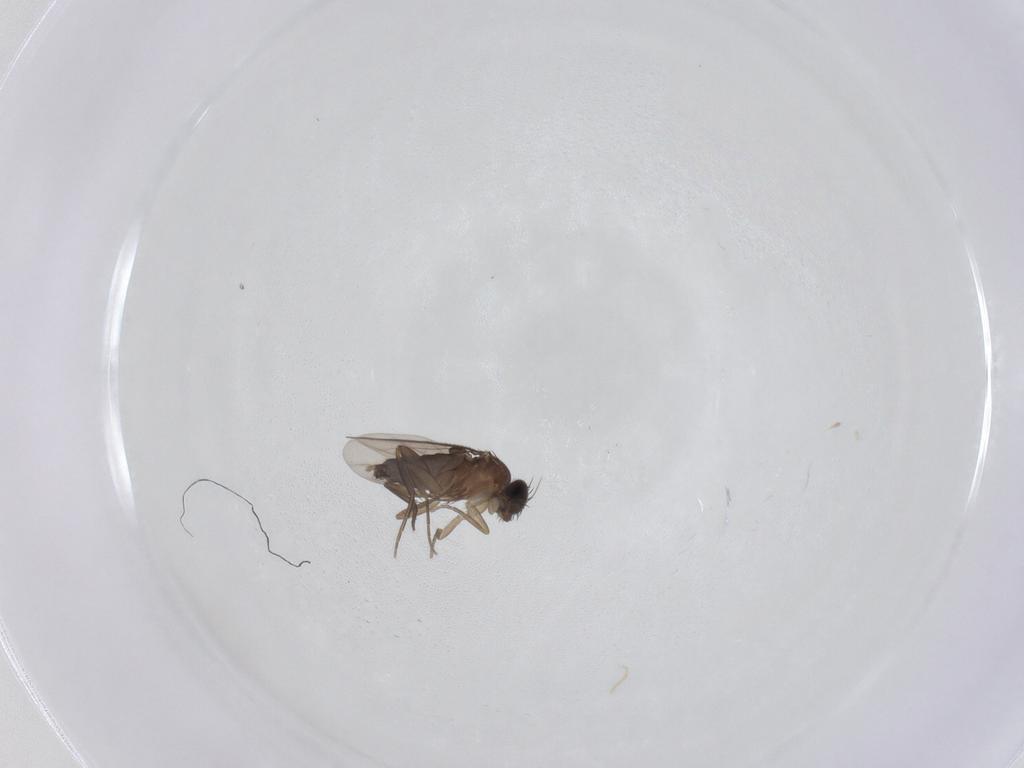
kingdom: Animalia
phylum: Arthropoda
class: Insecta
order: Diptera
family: Phoridae
